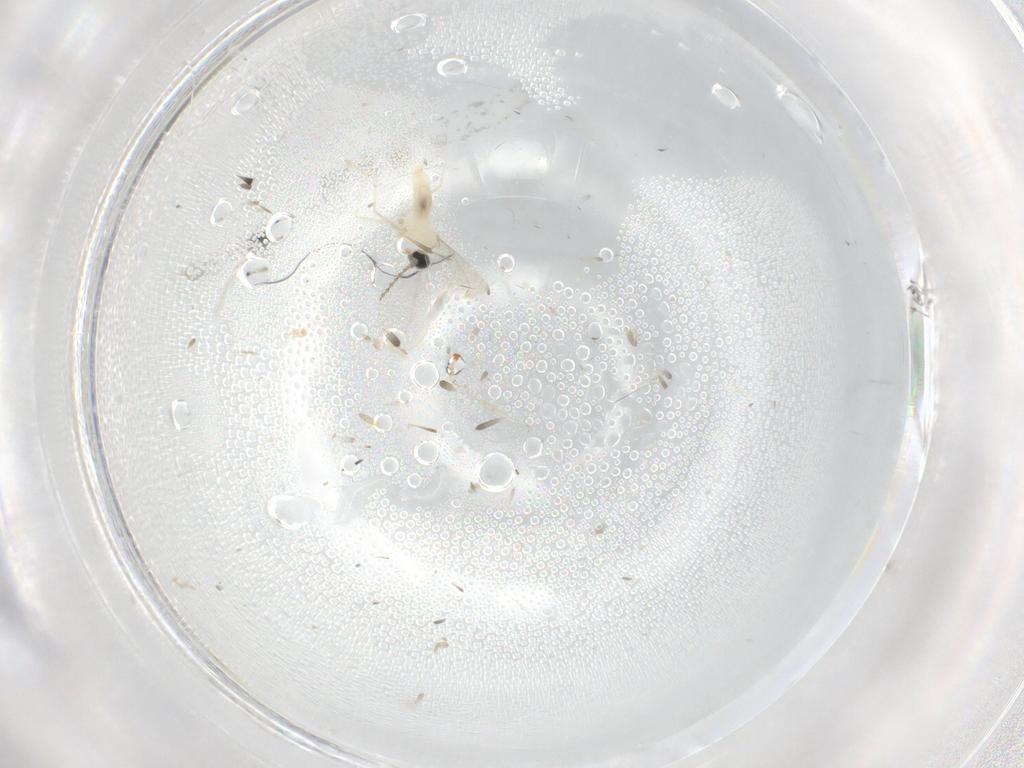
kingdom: Animalia
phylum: Arthropoda
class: Insecta
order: Diptera
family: Cecidomyiidae
